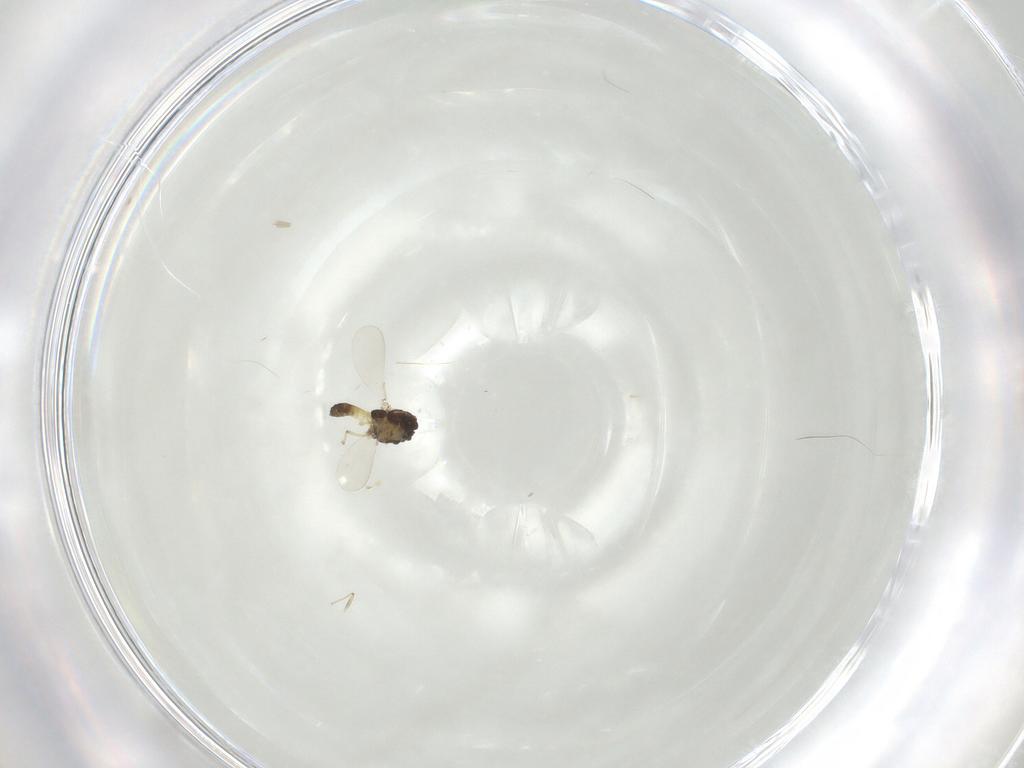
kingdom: Animalia
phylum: Arthropoda
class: Insecta
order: Diptera
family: Chironomidae
